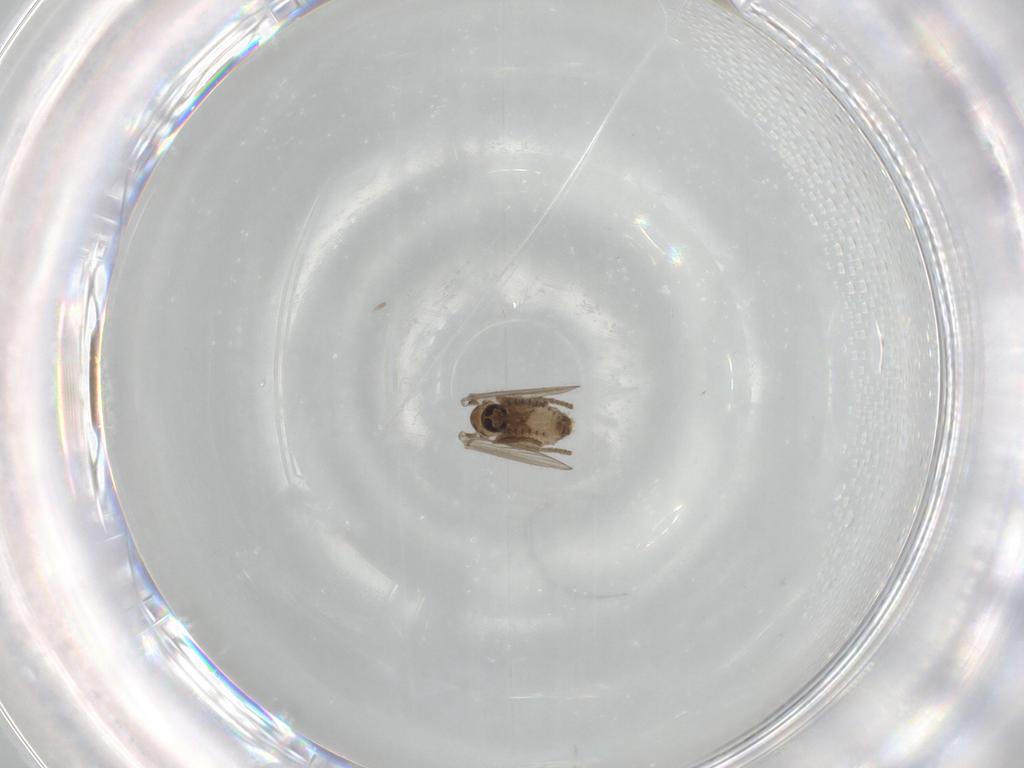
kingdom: Animalia
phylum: Arthropoda
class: Insecta
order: Diptera
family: Psychodidae
